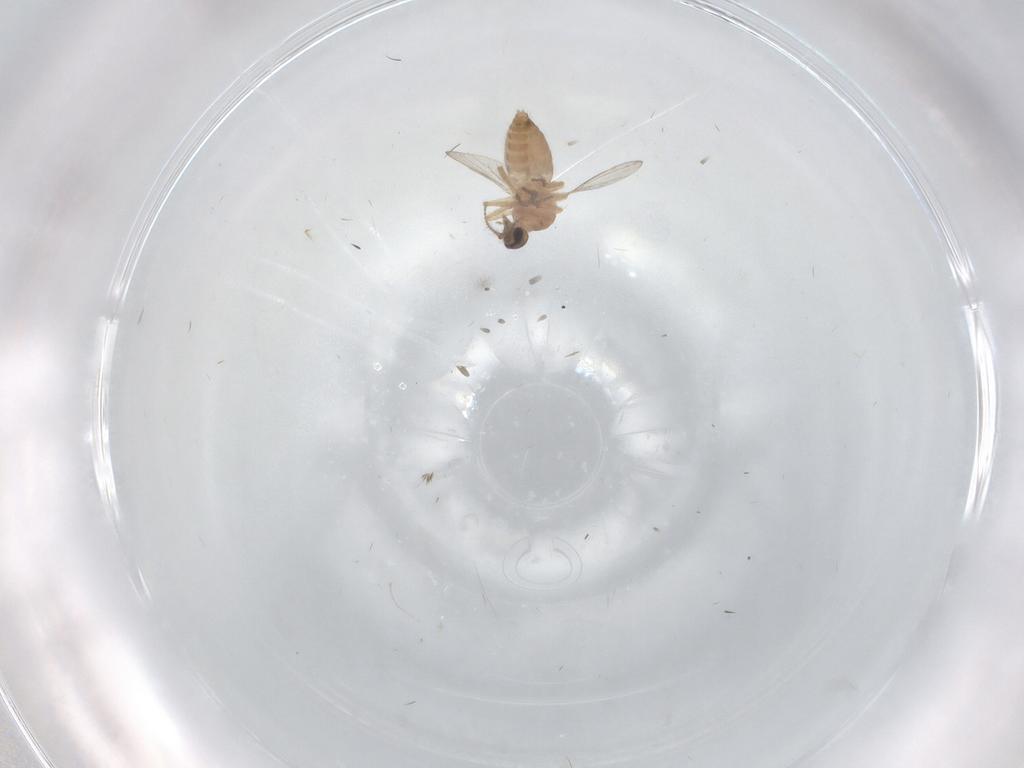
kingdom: Animalia
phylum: Arthropoda
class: Insecta
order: Diptera
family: Ceratopogonidae
